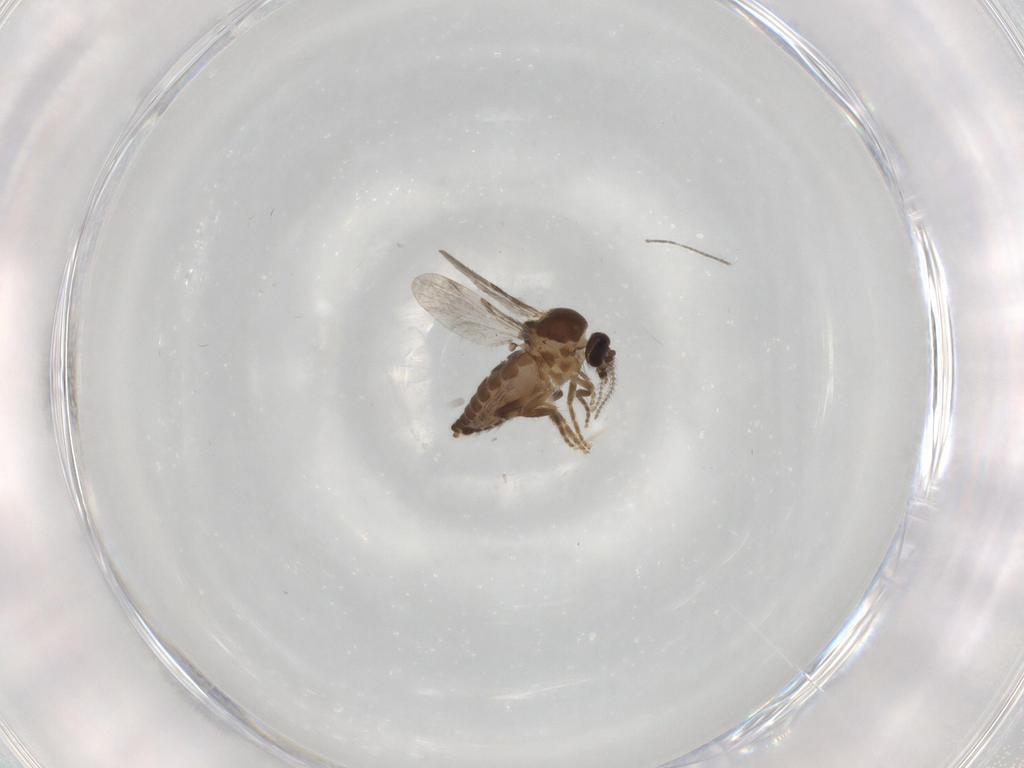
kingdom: Animalia
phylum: Arthropoda
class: Insecta
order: Diptera
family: Ceratopogonidae
